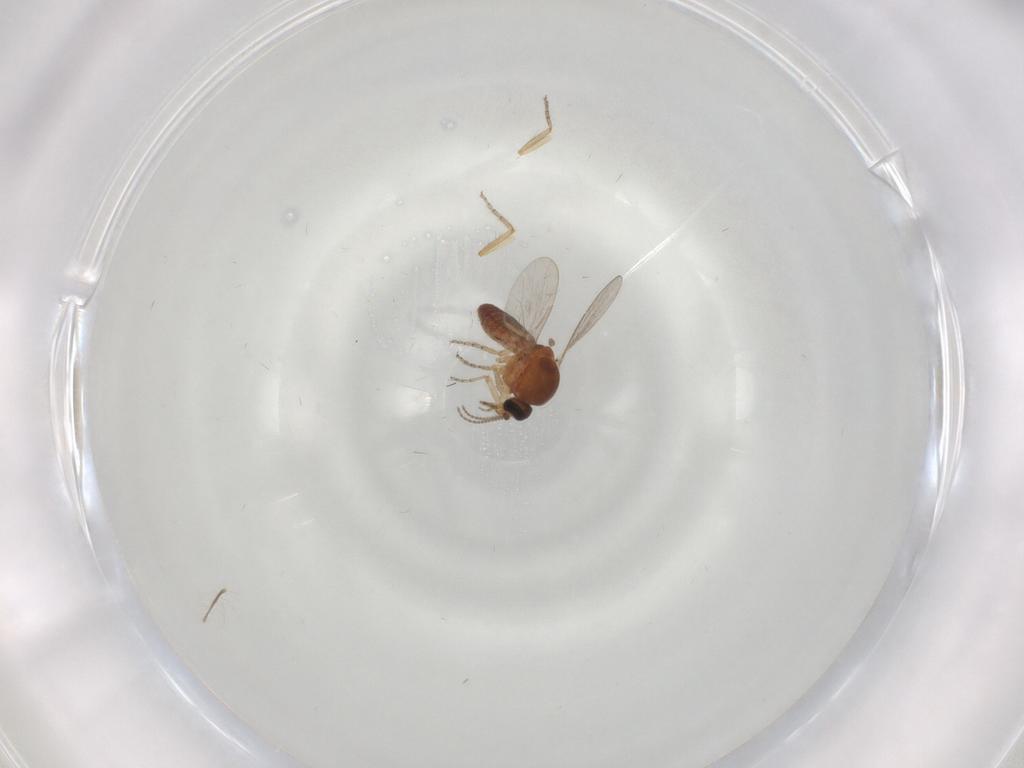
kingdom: Animalia
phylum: Arthropoda
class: Insecta
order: Diptera
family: Ceratopogonidae
